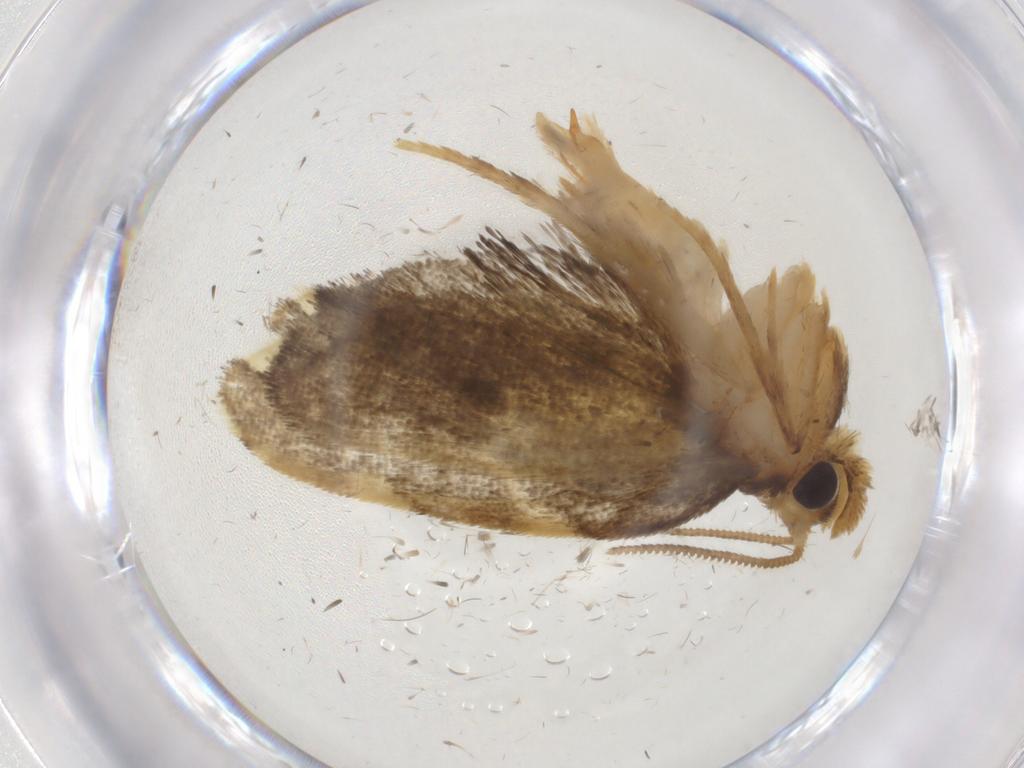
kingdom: Animalia
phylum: Arthropoda
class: Insecta
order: Lepidoptera
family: Psychidae
